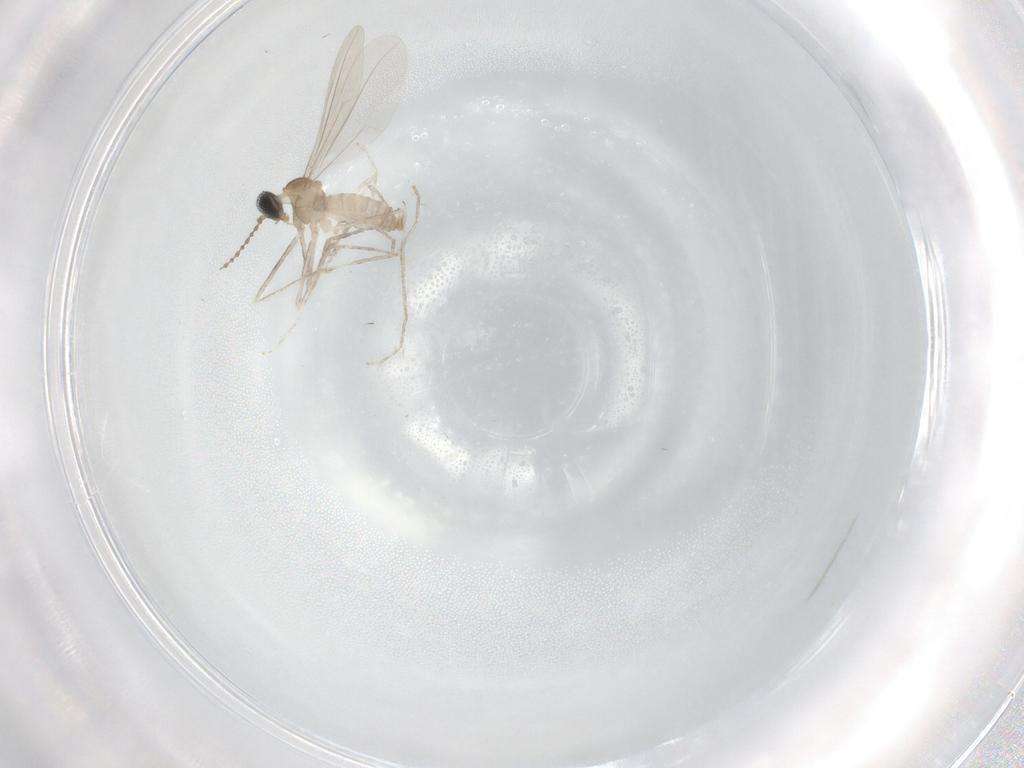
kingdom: Animalia
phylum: Arthropoda
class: Insecta
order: Diptera
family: Cecidomyiidae
